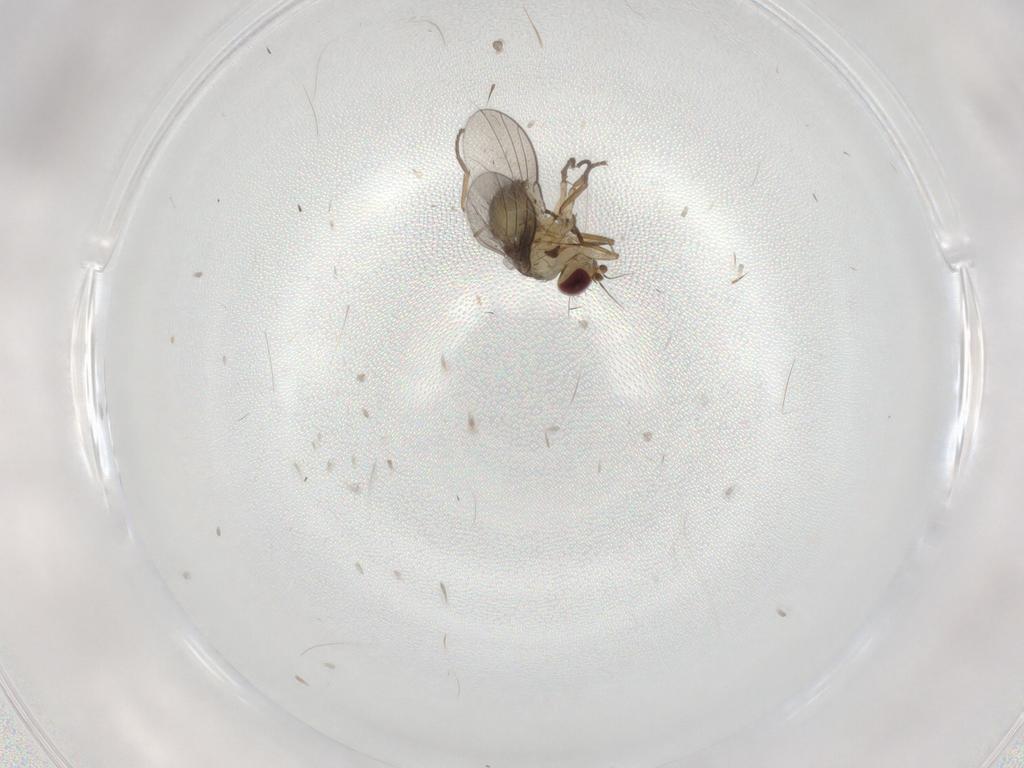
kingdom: Animalia
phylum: Arthropoda
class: Insecta
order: Diptera
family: Agromyzidae
